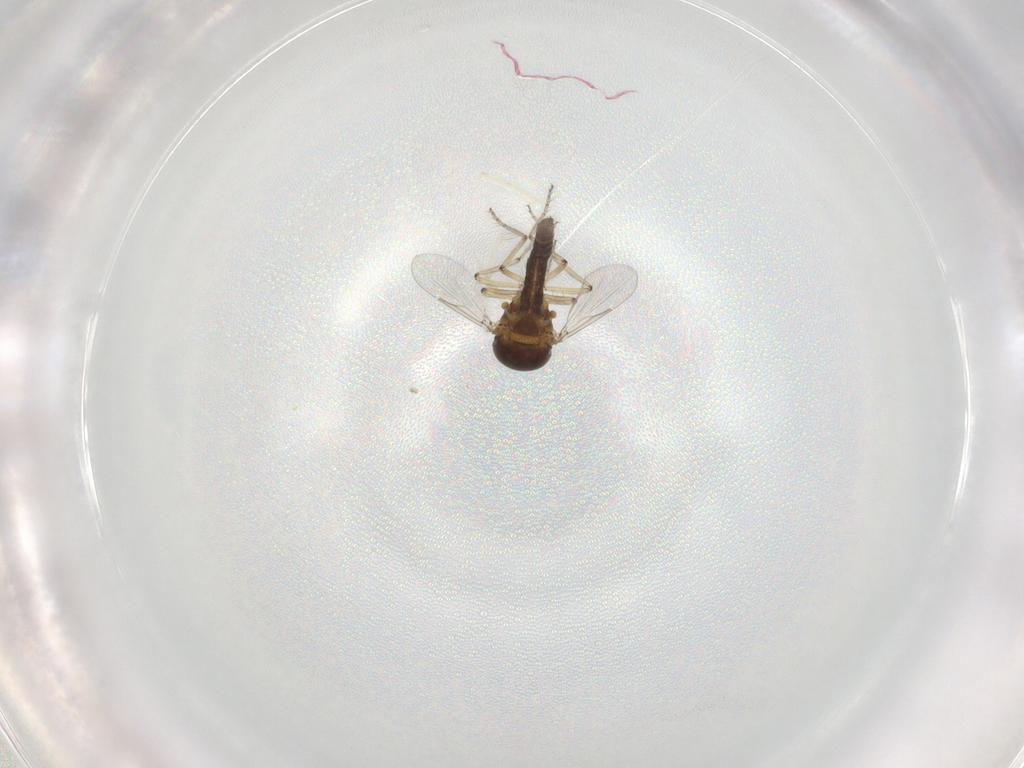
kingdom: Animalia
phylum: Arthropoda
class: Insecta
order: Diptera
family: Ceratopogonidae
